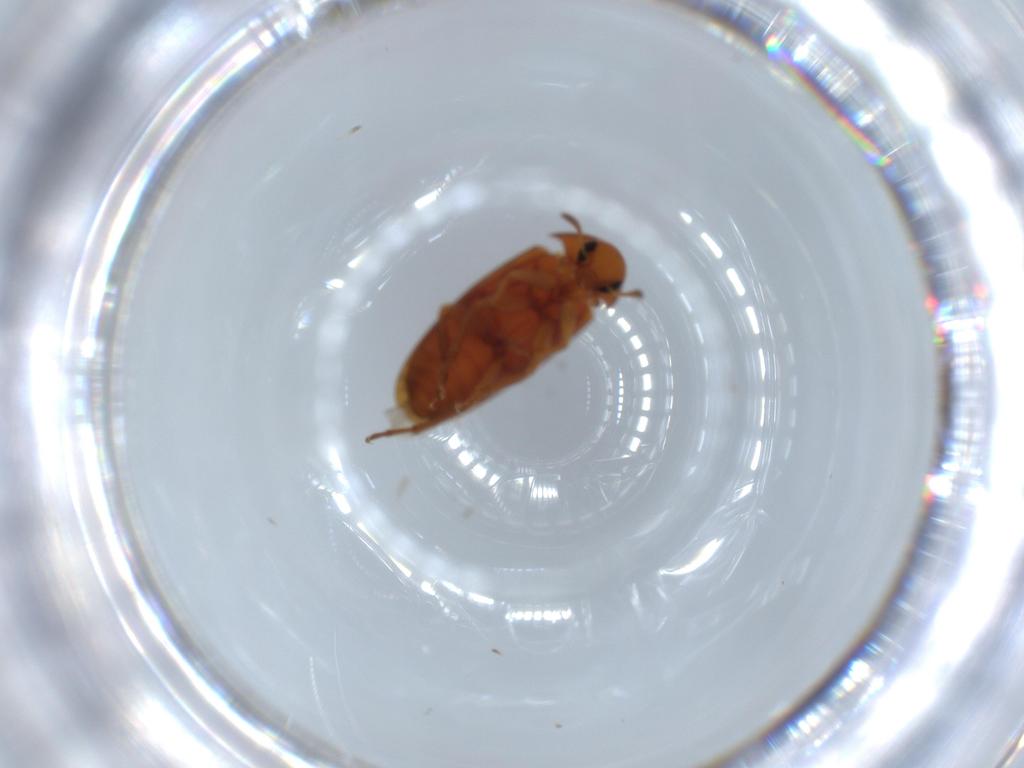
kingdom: Animalia
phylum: Arthropoda
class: Insecta
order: Coleoptera
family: Scraptiidae
